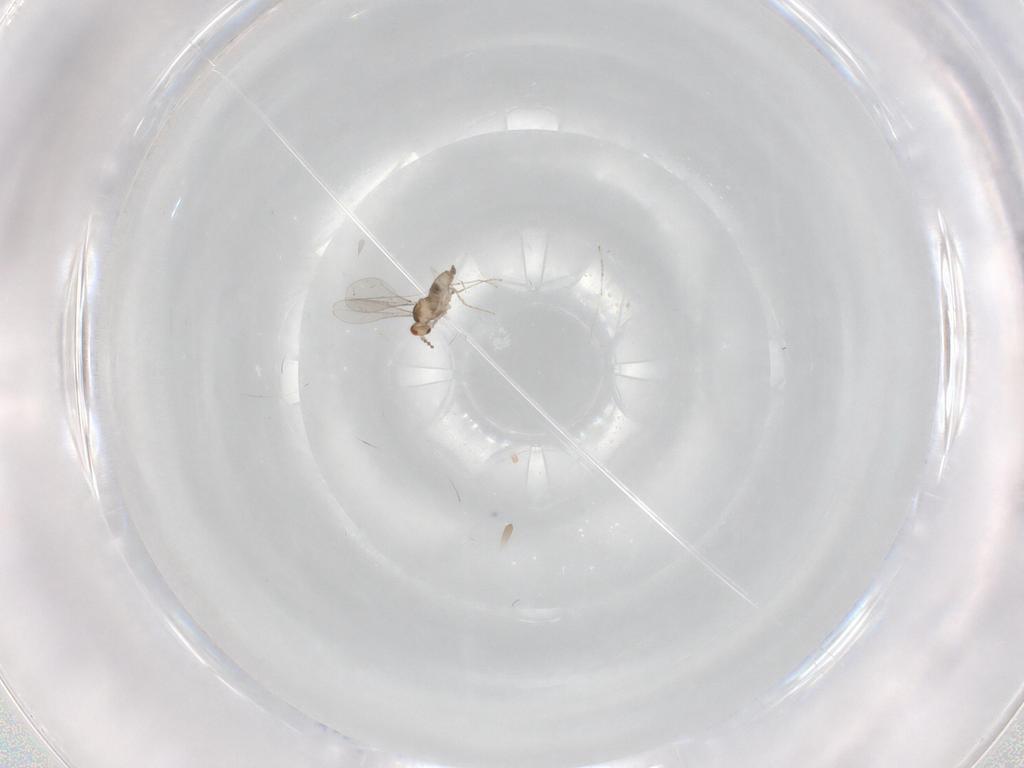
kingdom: Animalia
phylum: Arthropoda
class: Insecta
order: Diptera
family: Cecidomyiidae
